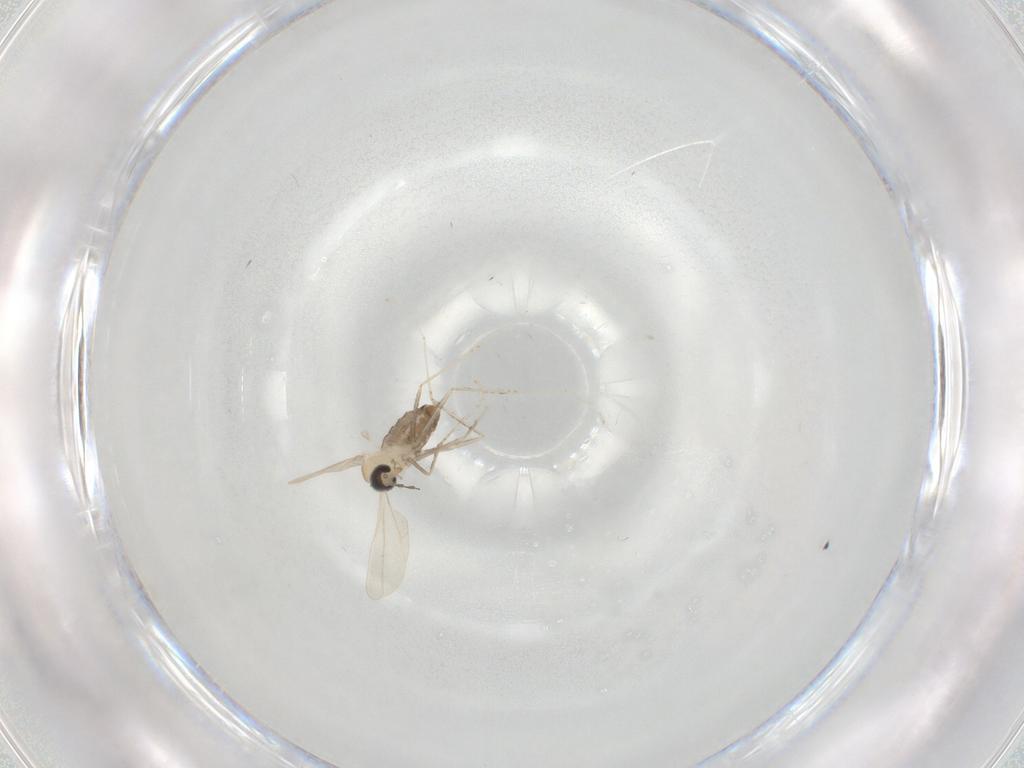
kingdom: Animalia
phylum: Arthropoda
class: Insecta
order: Diptera
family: Cecidomyiidae
